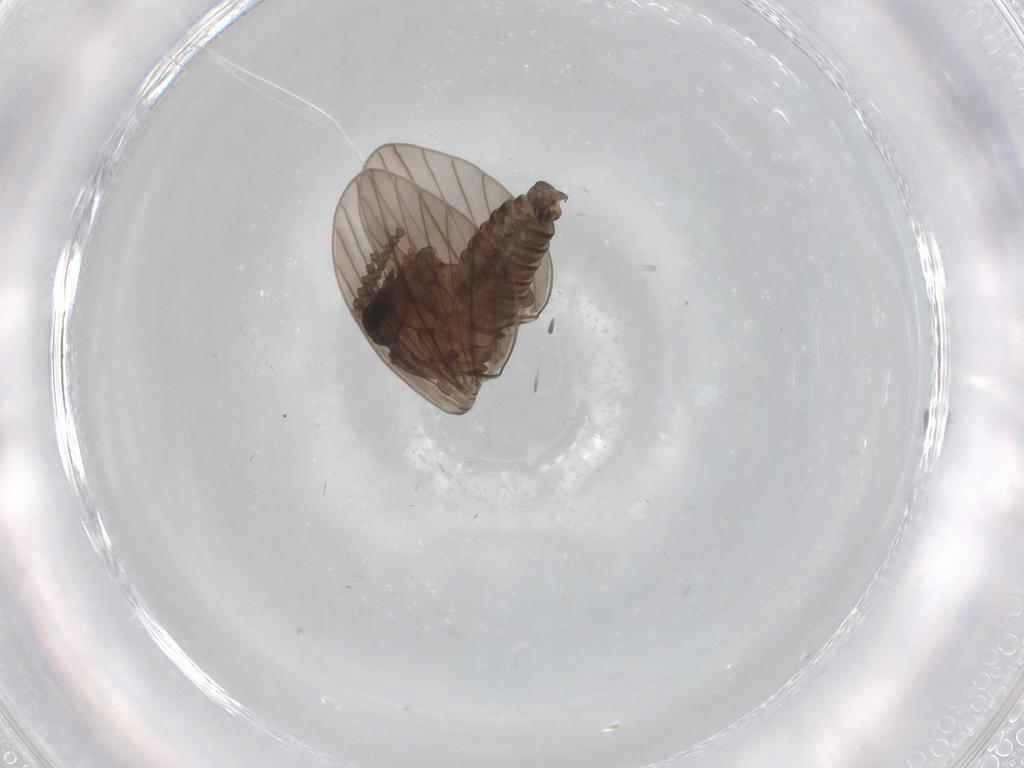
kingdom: Animalia
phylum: Arthropoda
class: Insecta
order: Diptera
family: Psychodidae
